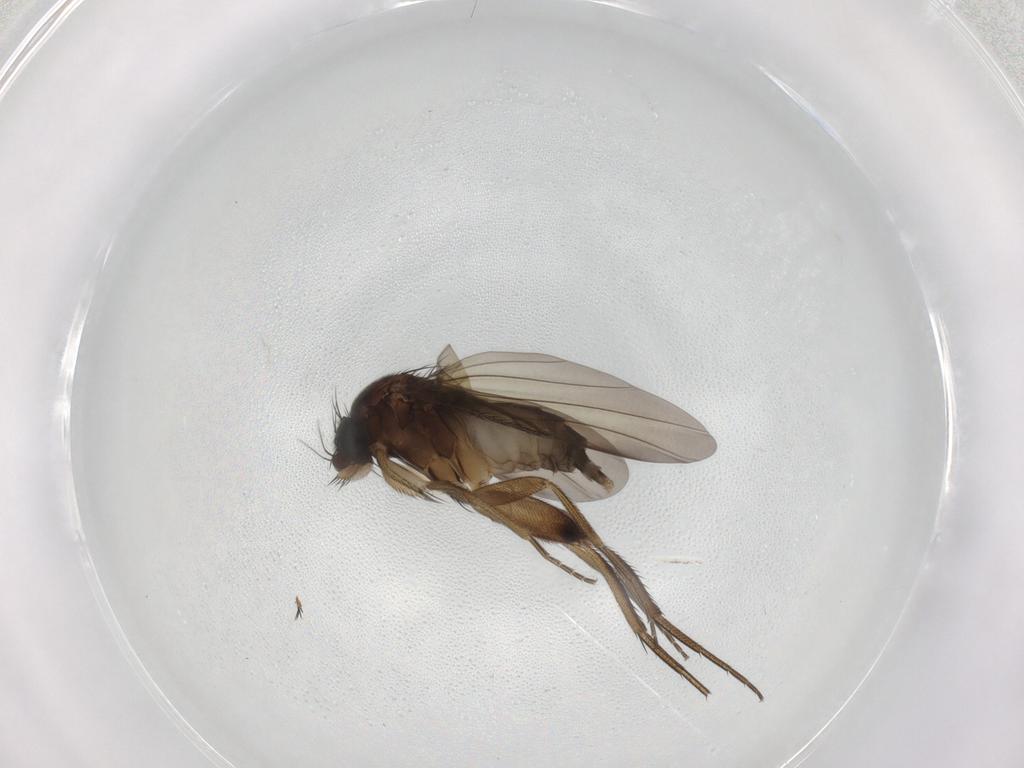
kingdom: Animalia
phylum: Arthropoda
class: Insecta
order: Diptera
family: Phoridae
